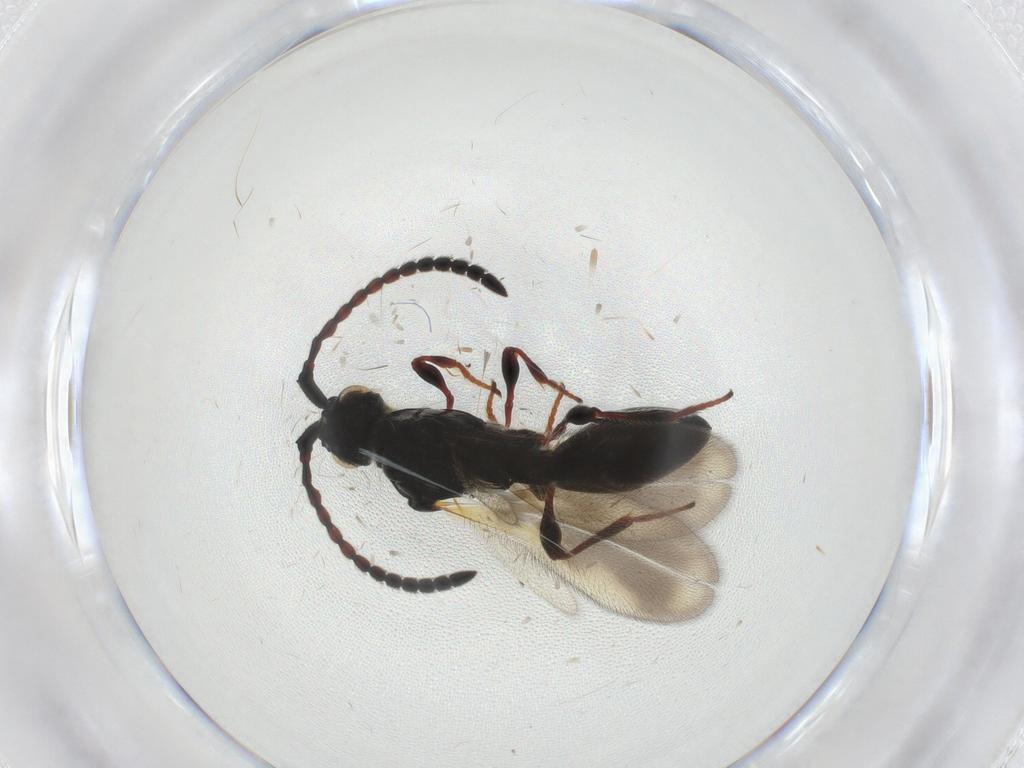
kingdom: Animalia
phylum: Arthropoda
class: Insecta
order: Hymenoptera
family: Diapriidae
